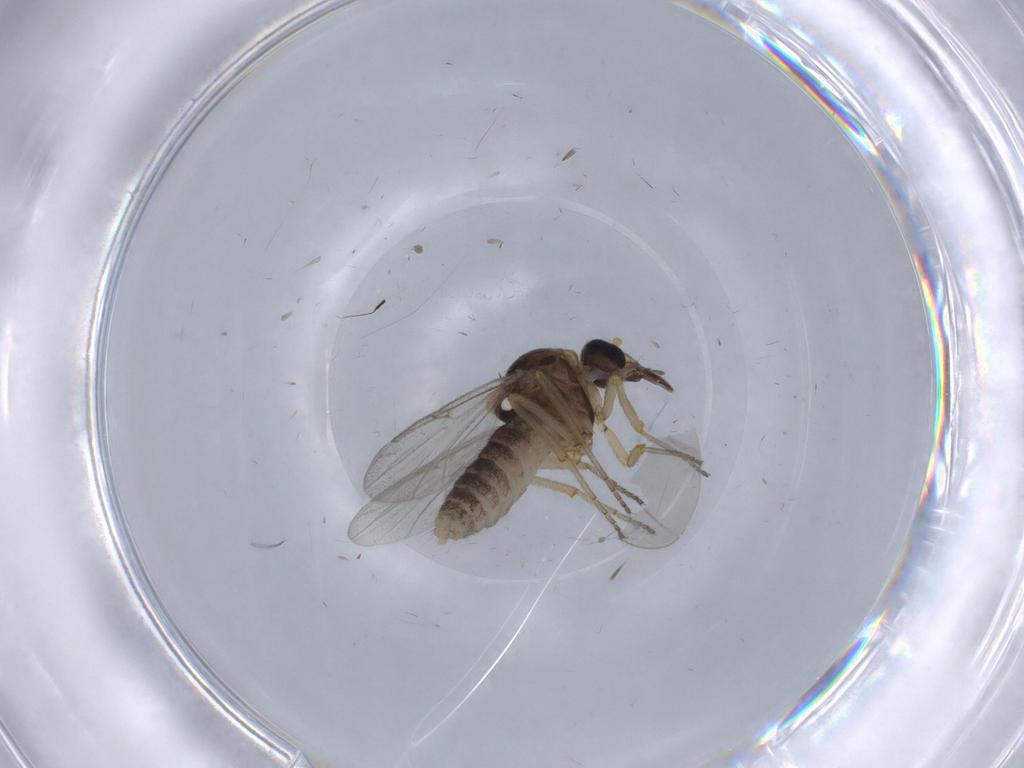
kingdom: Animalia
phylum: Arthropoda
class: Insecta
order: Diptera
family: Ceratopogonidae
